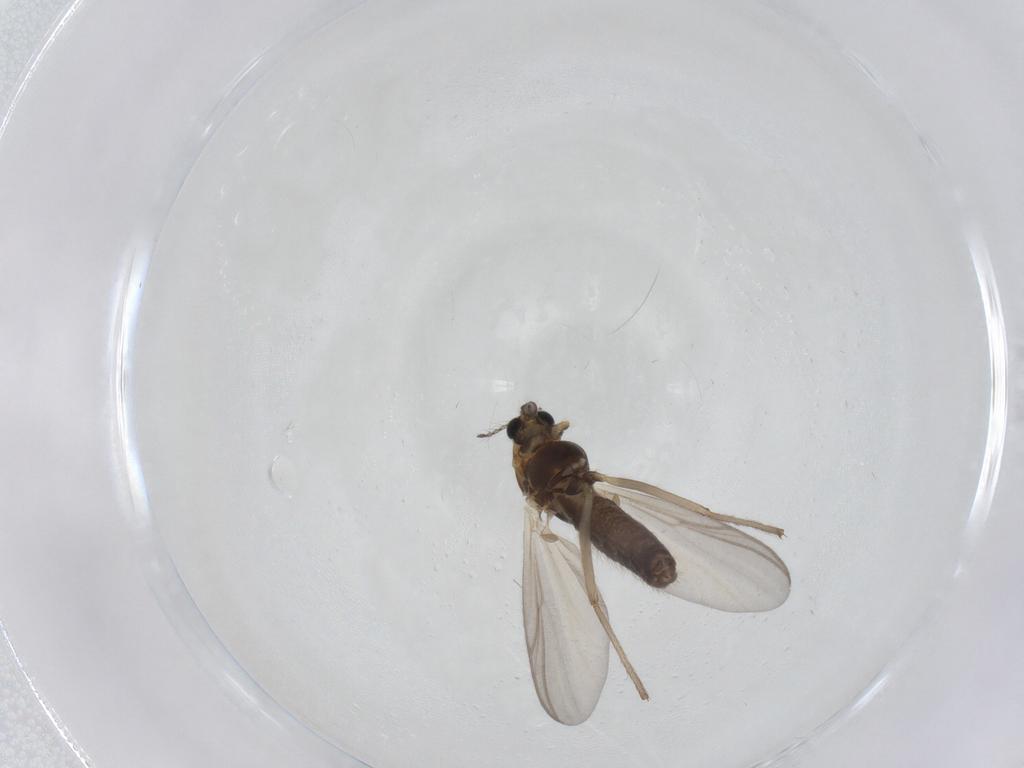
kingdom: Animalia
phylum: Arthropoda
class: Insecta
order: Diptera
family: Chironomidae
